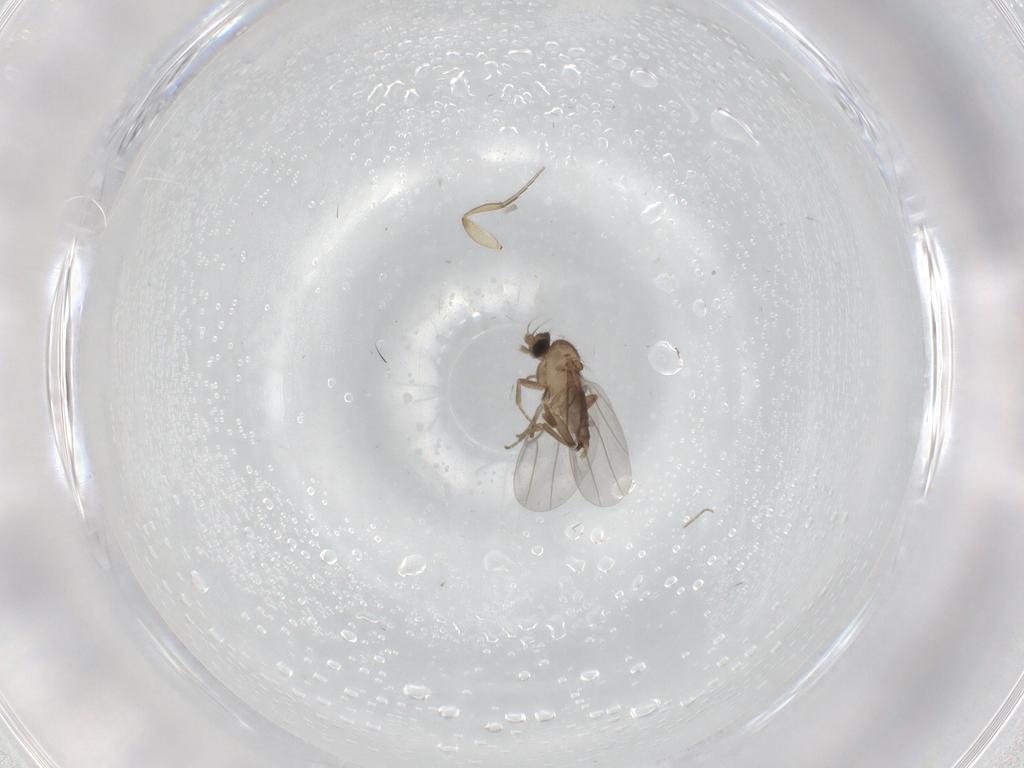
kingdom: Animalia
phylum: Arthropoda
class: Insecta
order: Diptera
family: Phoridae
